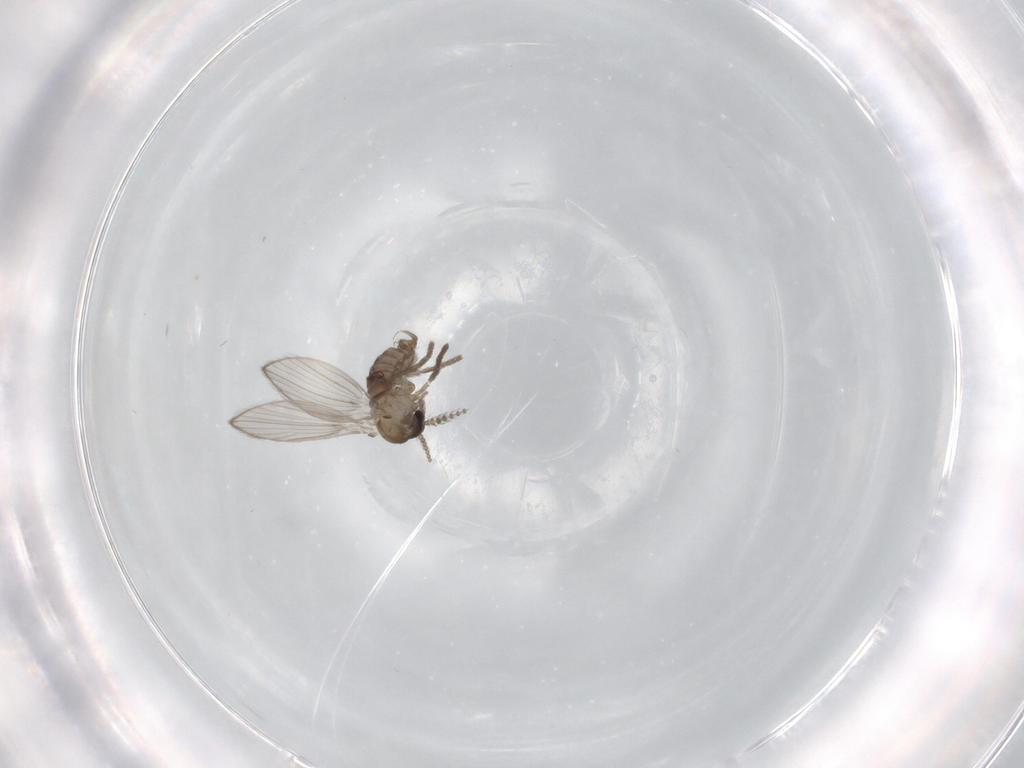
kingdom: Animalia
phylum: Arthropoda
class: Insecta
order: Diptera
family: Psychodidae
